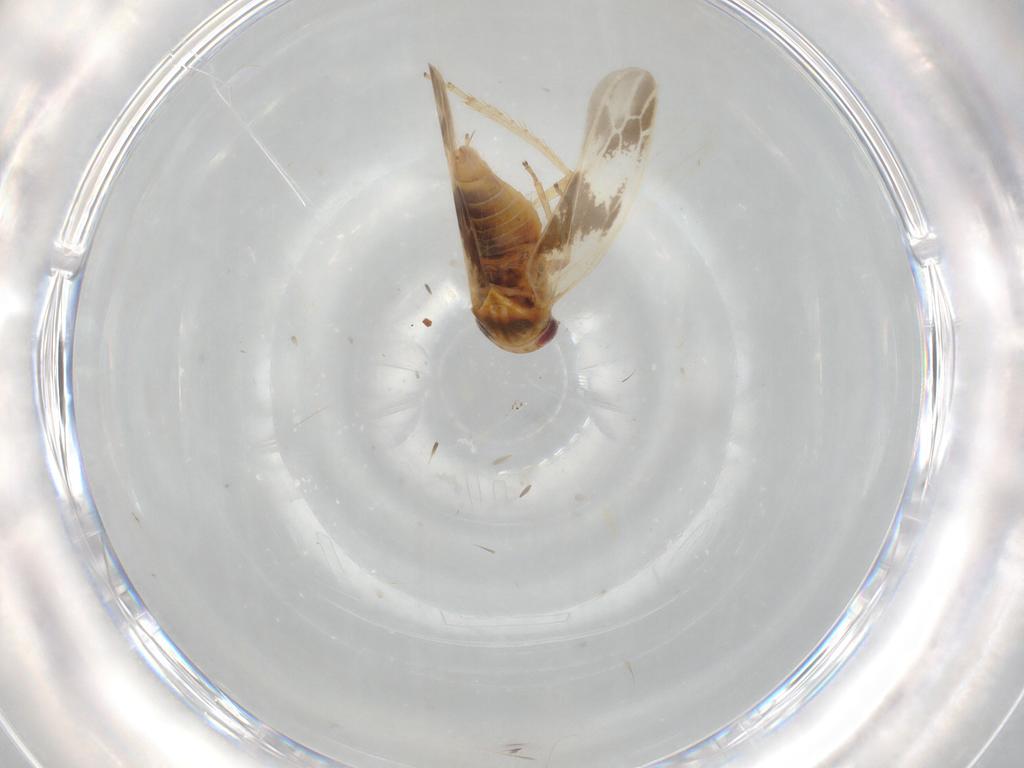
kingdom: Animalia
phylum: Arthropoda
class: Insecta
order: Hemiptera
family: Cicadellidae
